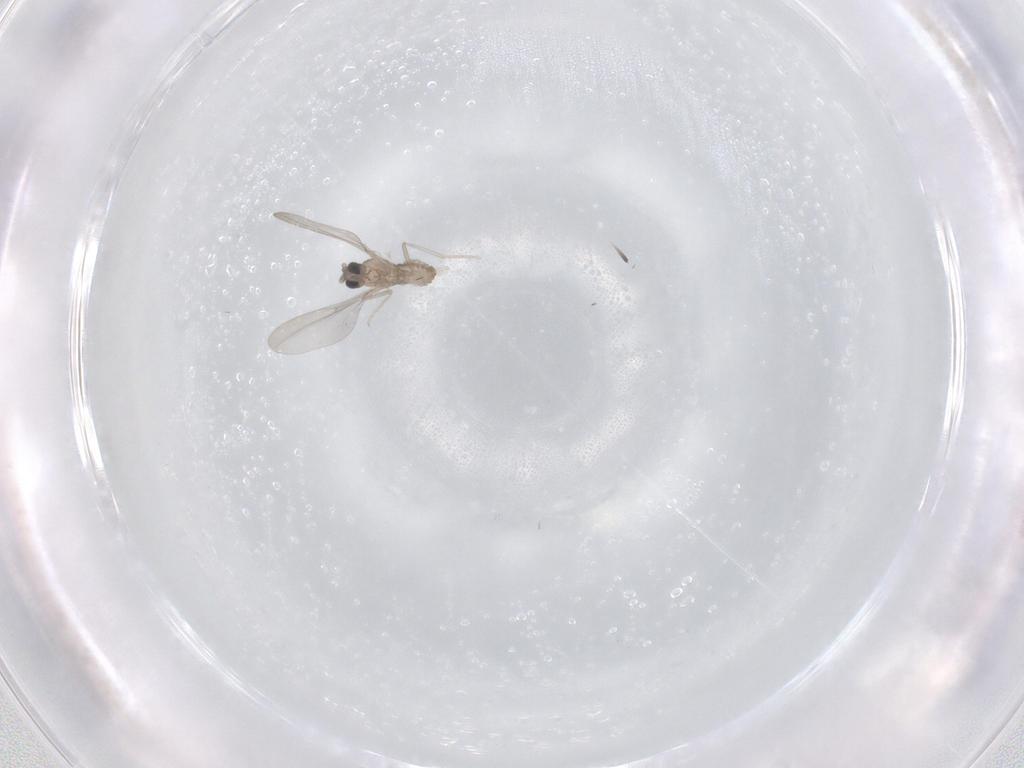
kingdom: Animalia
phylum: Arthropoda
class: Insecta
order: Diptera
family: Cecidomyiidae
